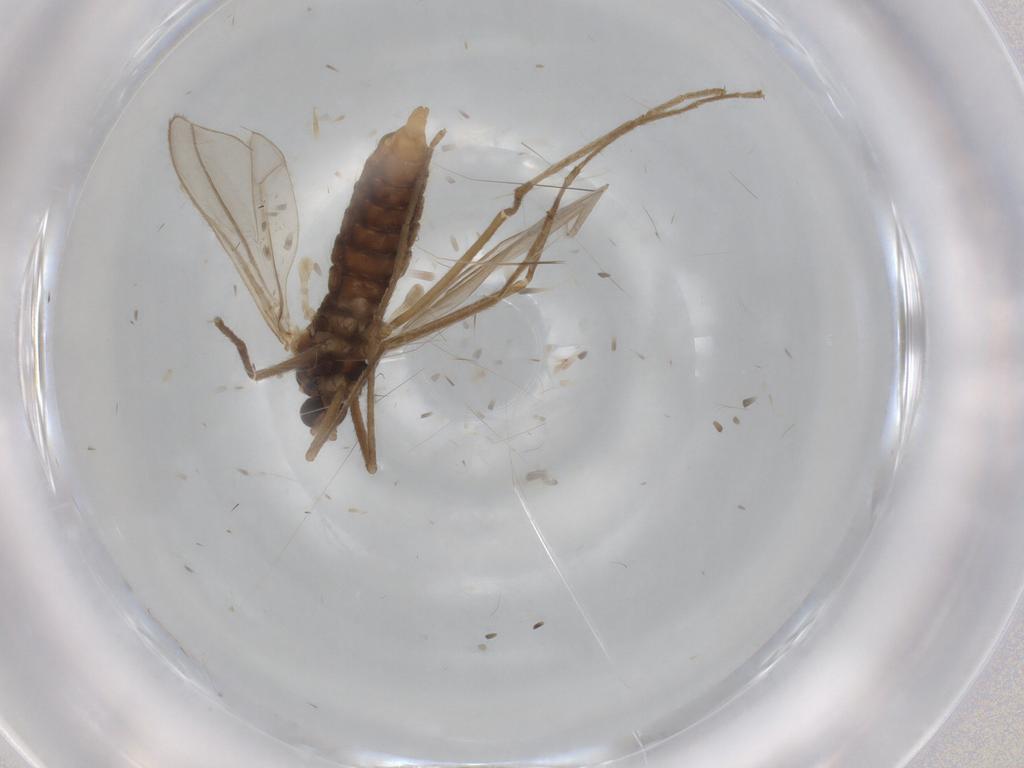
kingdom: Animalia
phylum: Arthropoda
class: Insecta
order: Diptera
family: Cecidomyiidae
